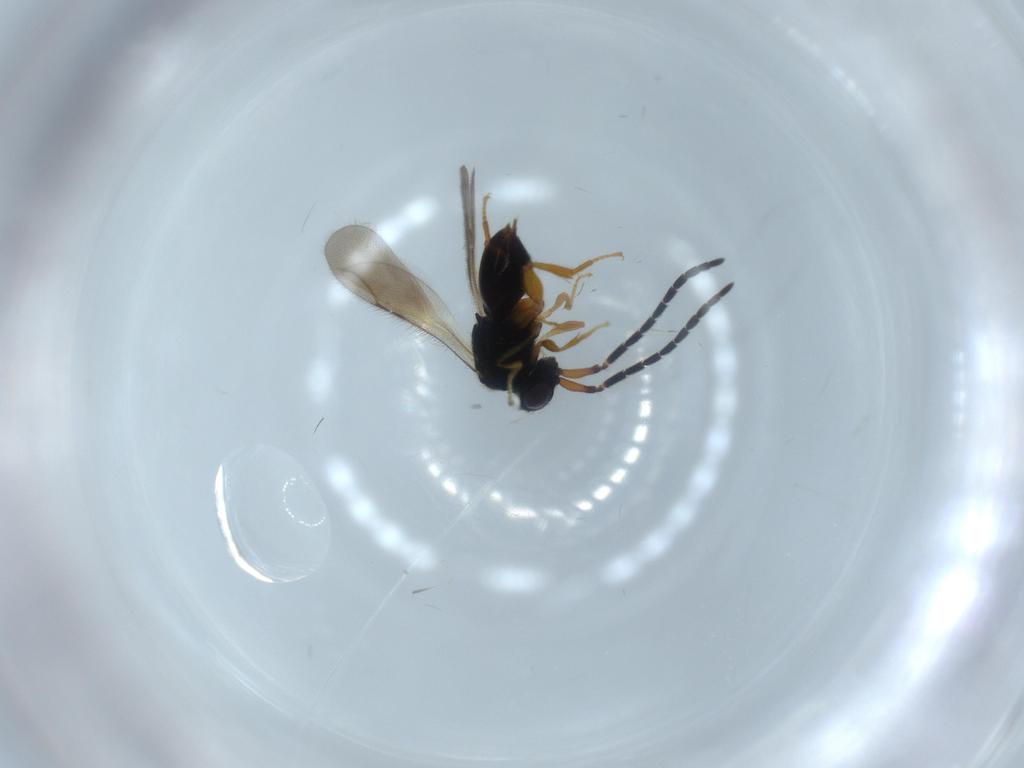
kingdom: Animalia
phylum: Arthropoda
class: Insecta
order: Hymenoptera
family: Ceraphronidae
